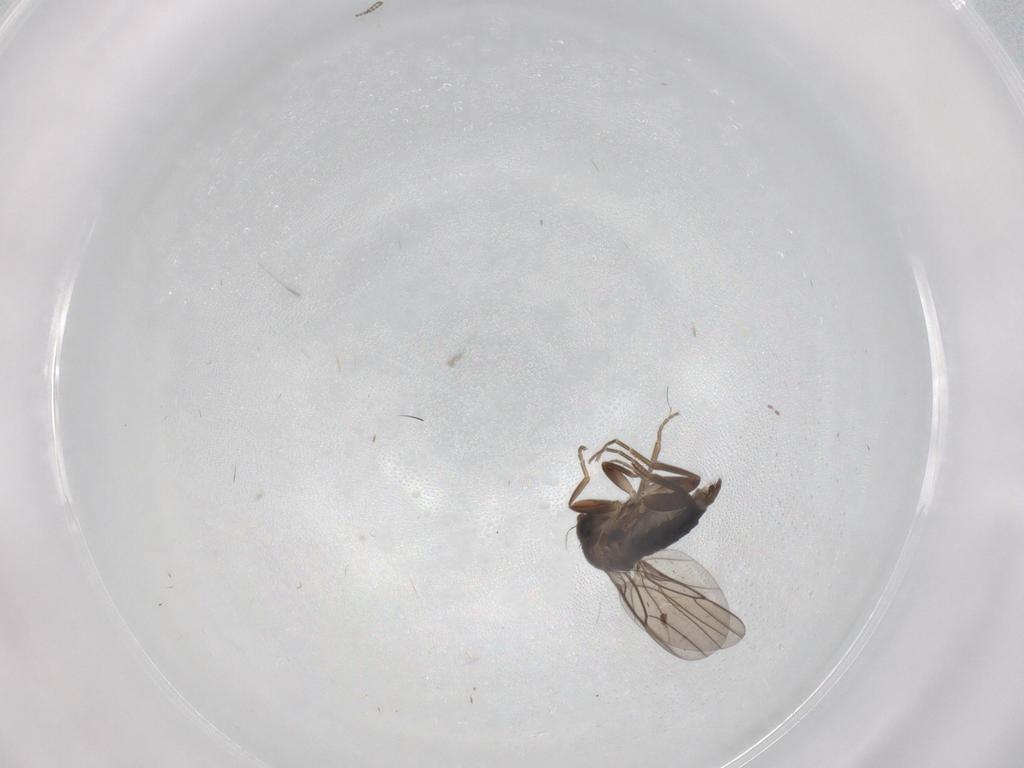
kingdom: Animalia
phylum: Arthropoda
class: Insecta
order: Diptera
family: Phoridae
